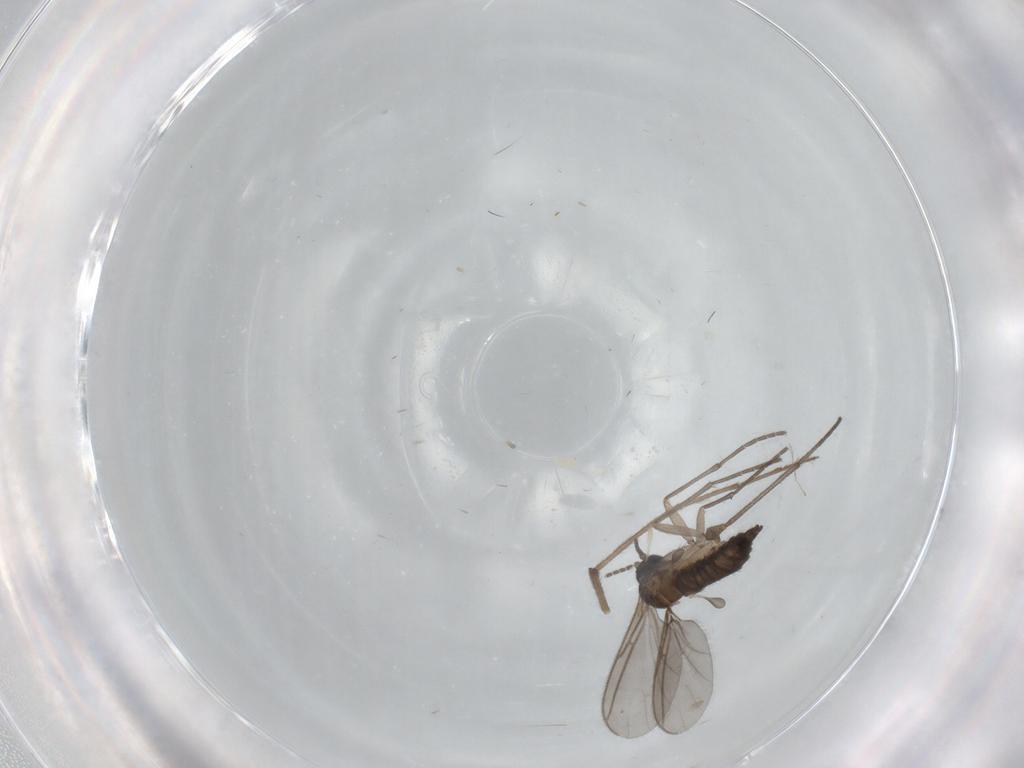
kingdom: Animalia
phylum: Arthropoda
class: Insecta
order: Diptera
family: Sciaridae
